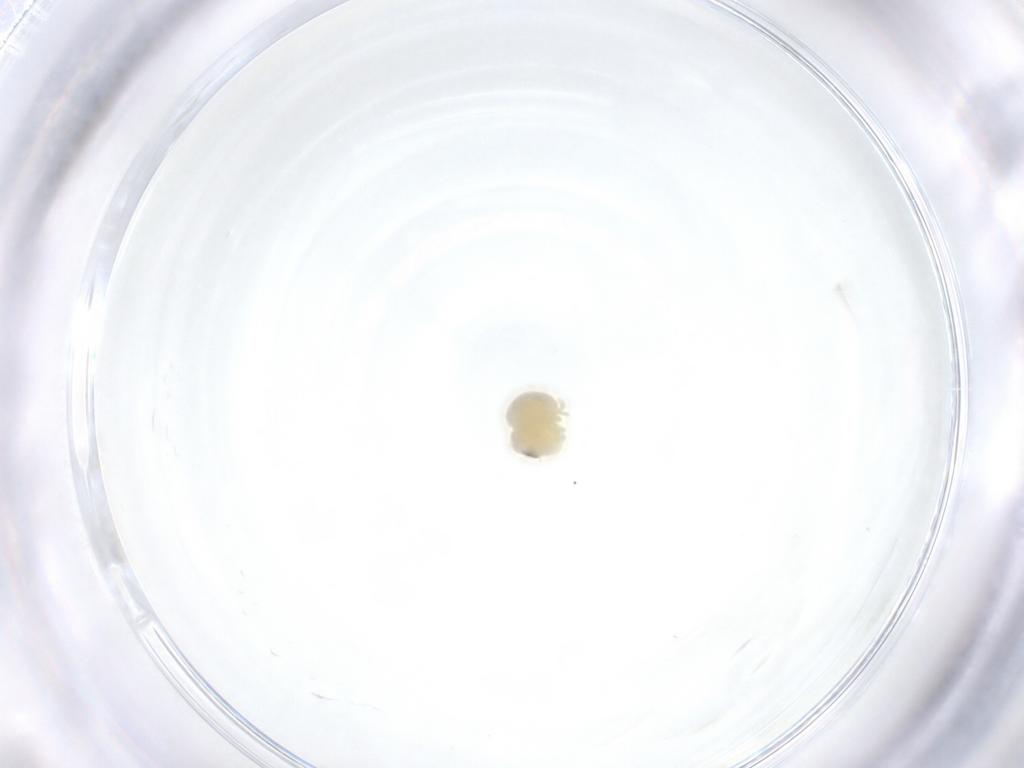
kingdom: Animalia
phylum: Arthropoda
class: Arachnida
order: Araneae
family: Pholcidae
